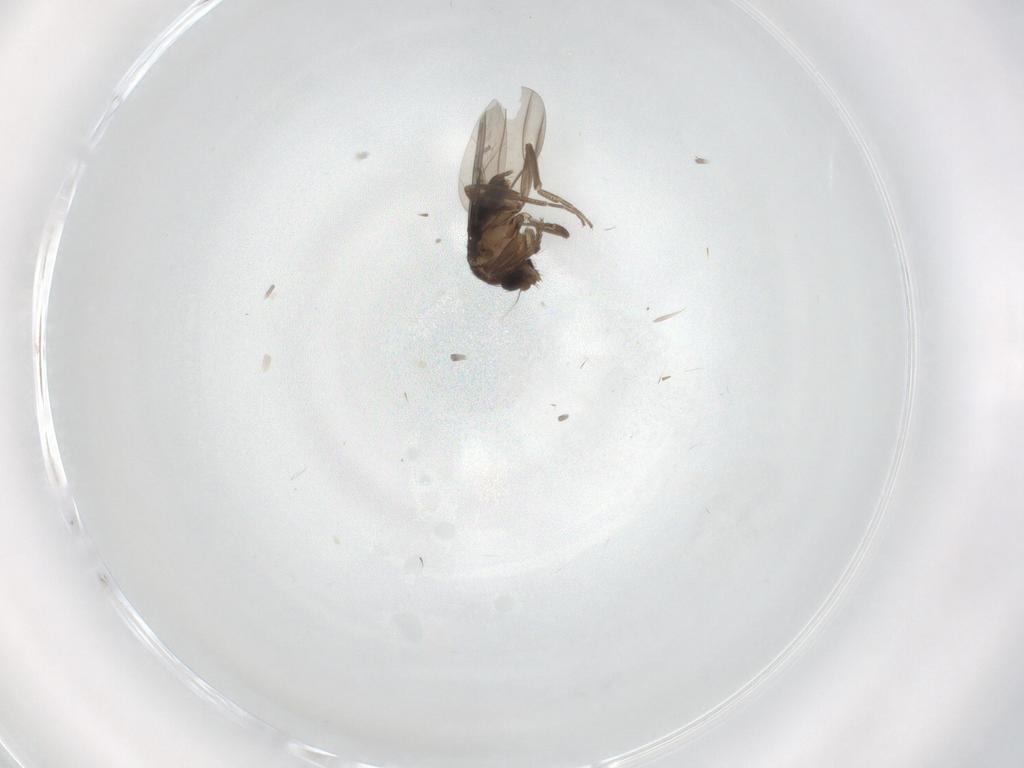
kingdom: Animalia
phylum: Arthropoda
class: Insecta
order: Diptera
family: Phoridae
